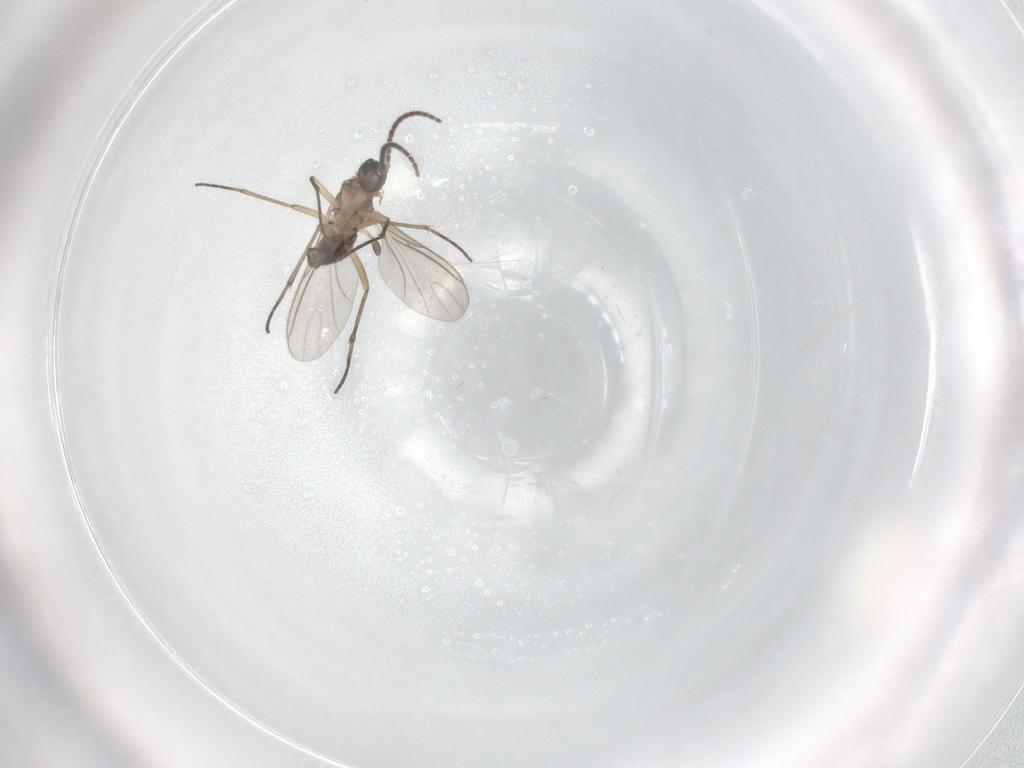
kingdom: Animalia
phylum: Arthropoda
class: Insecta
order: Diptera
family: Sciaridae
